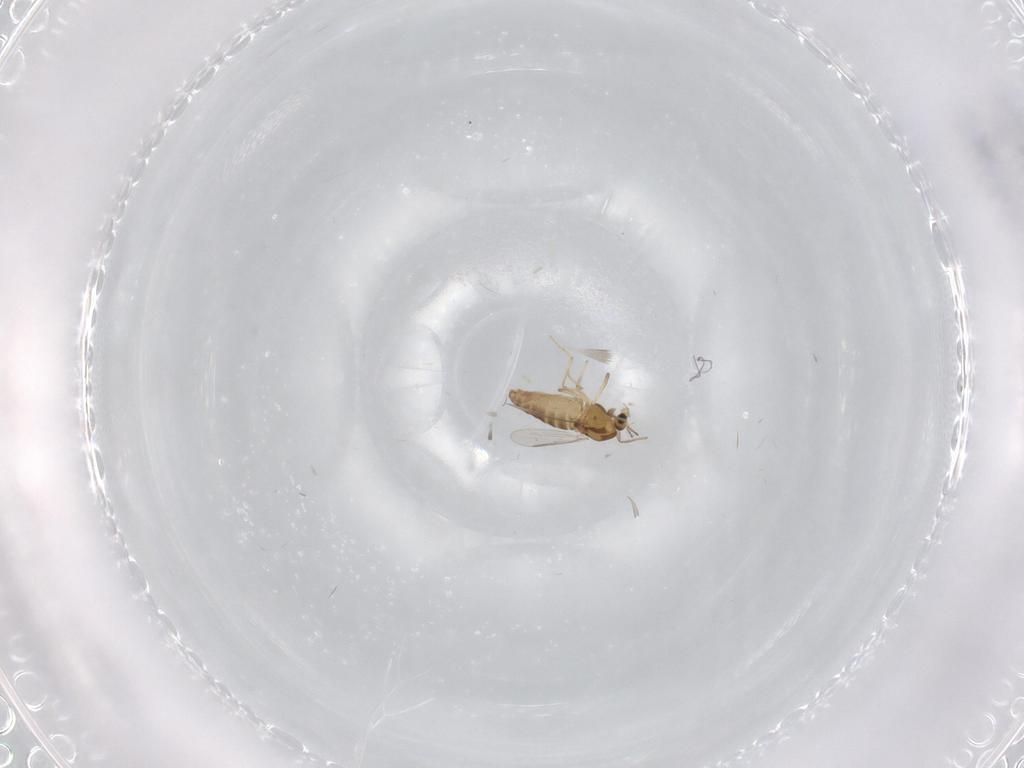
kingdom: Animalia
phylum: Arthropoda
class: Insecta
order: Diptera
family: Chironomidae
